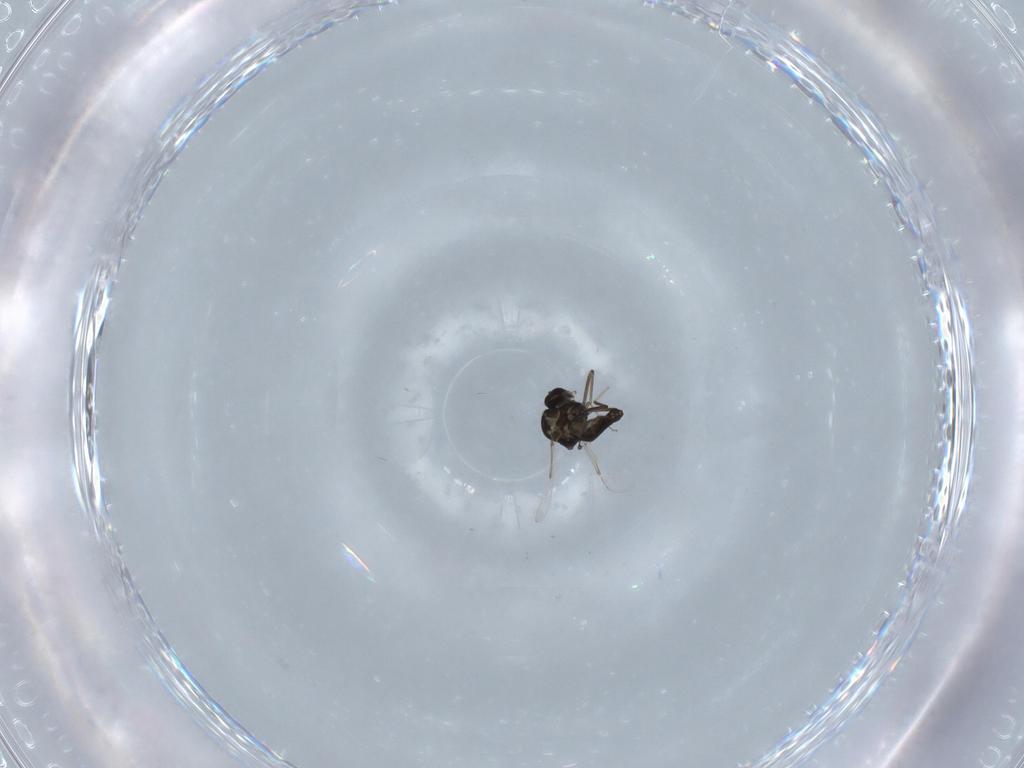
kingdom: Animalia
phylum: Arthropoda
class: Insecta
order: Diptera
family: Ceratopogonidae
